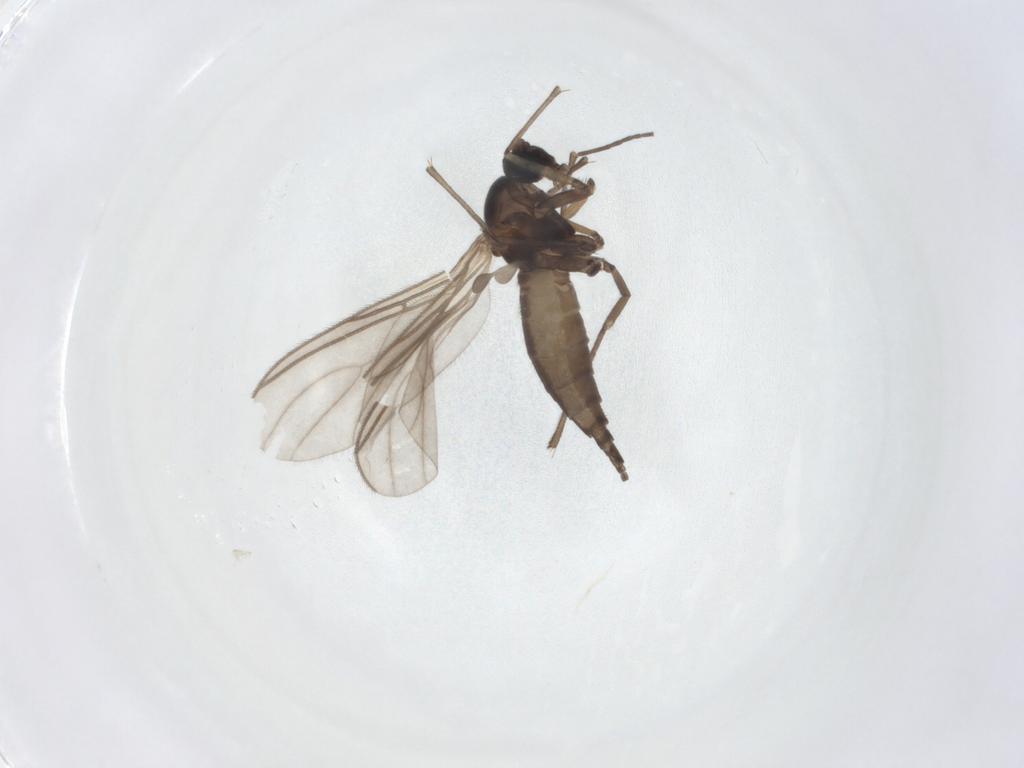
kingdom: Animalia
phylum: Arthropoda
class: Insecta
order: Diptera
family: Sciaridae
